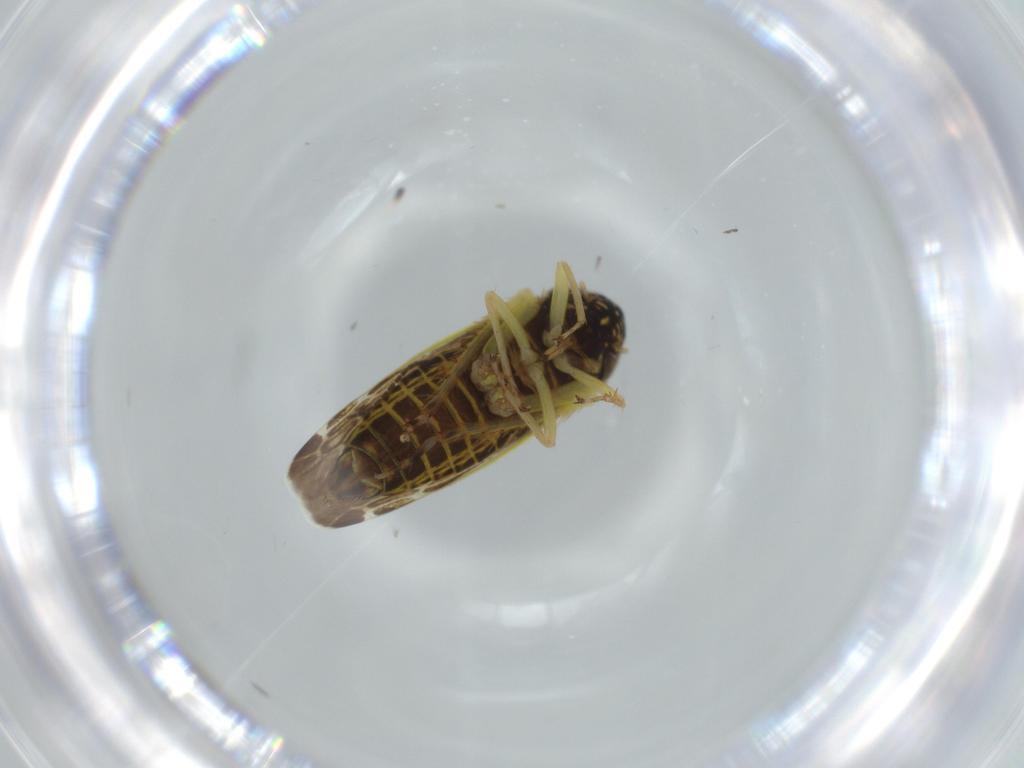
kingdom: Animalia
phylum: Arthropoda
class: Insecta
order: Hemiptera
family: Cicadellidae
